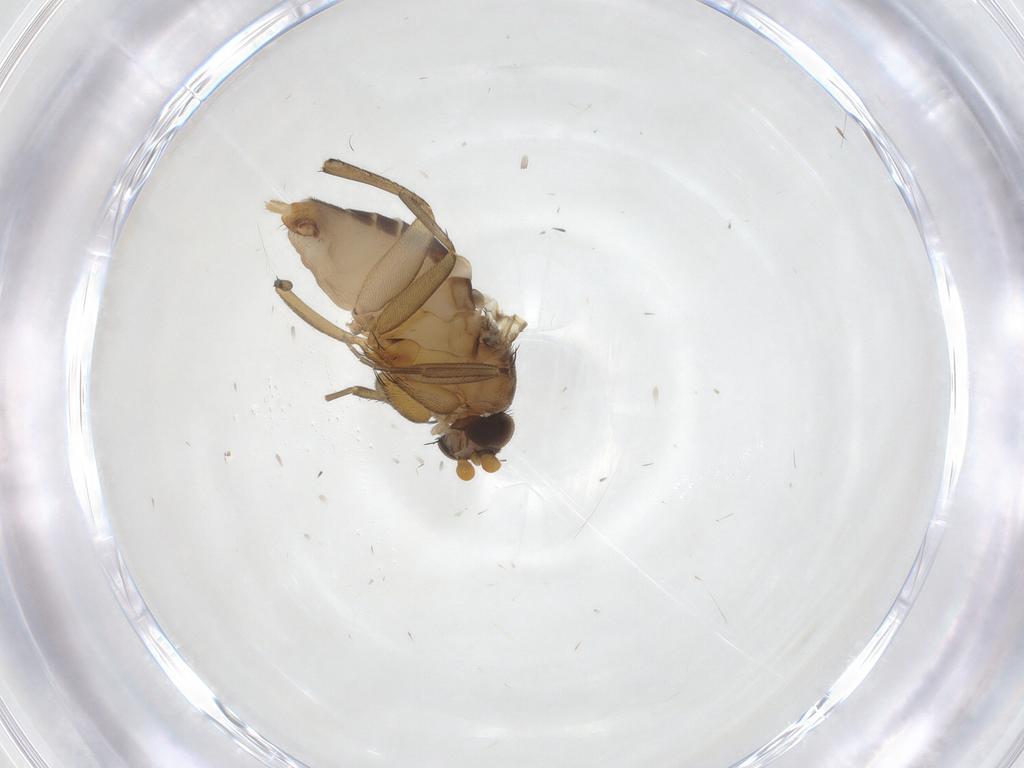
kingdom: Animalia
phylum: Arthropoda
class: Insecta
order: Diptera
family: Phoridae
